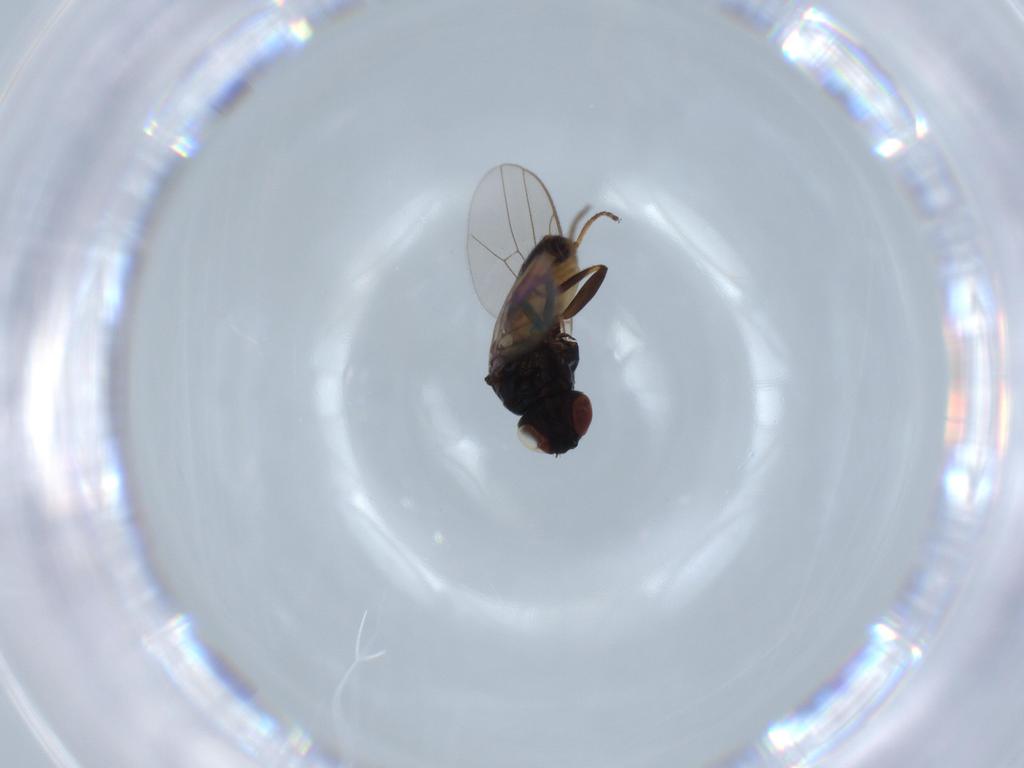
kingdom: Animalia
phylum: Arthropoda
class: Insecta
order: Diptera
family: Chloropidae
